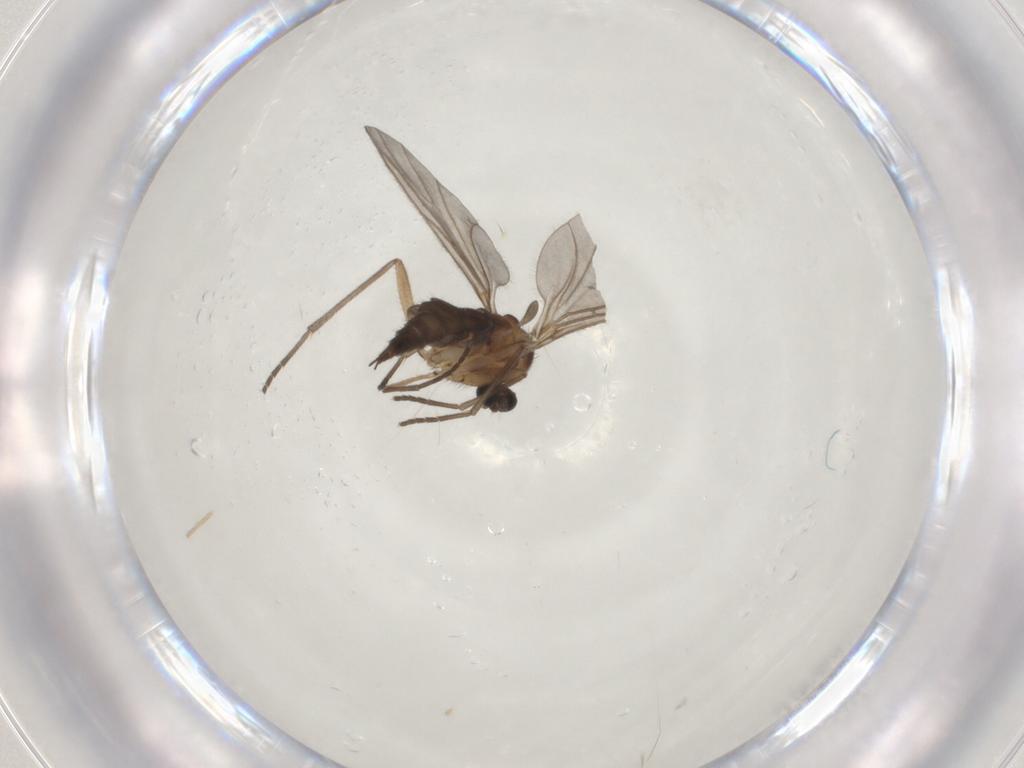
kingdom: Animalia
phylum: Arthropoda
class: Insecta
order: Diptera
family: Sciaridae
